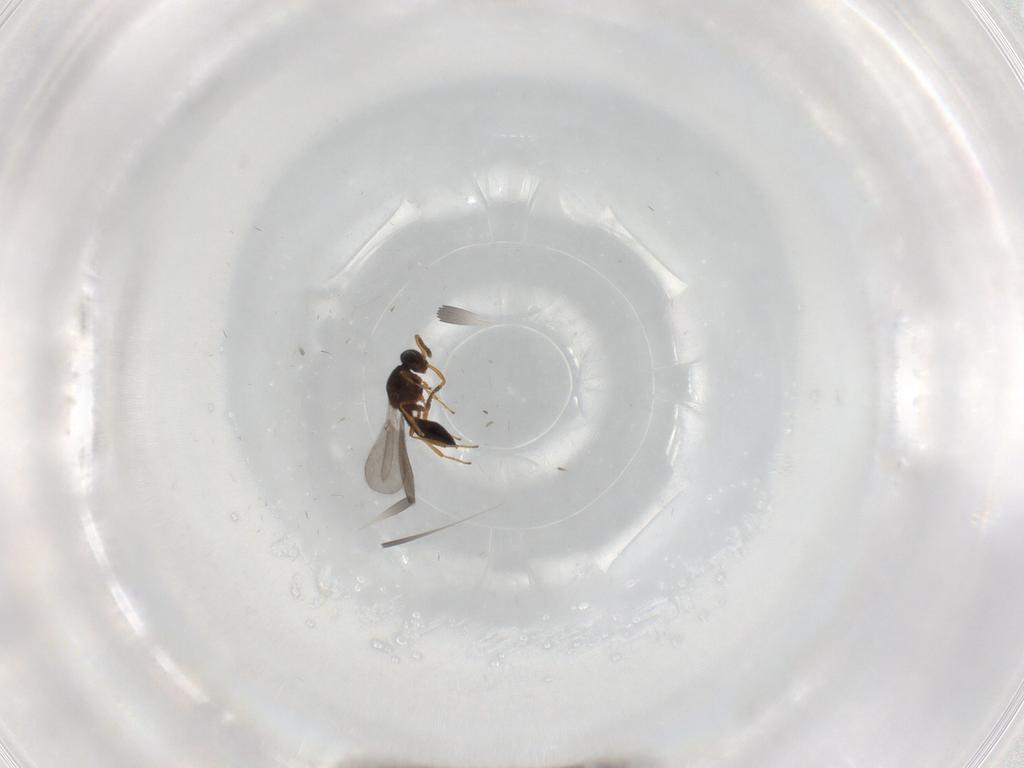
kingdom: Animalia
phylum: Arthropoda
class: Insecta
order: Hymenoptera
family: Platygastridae
